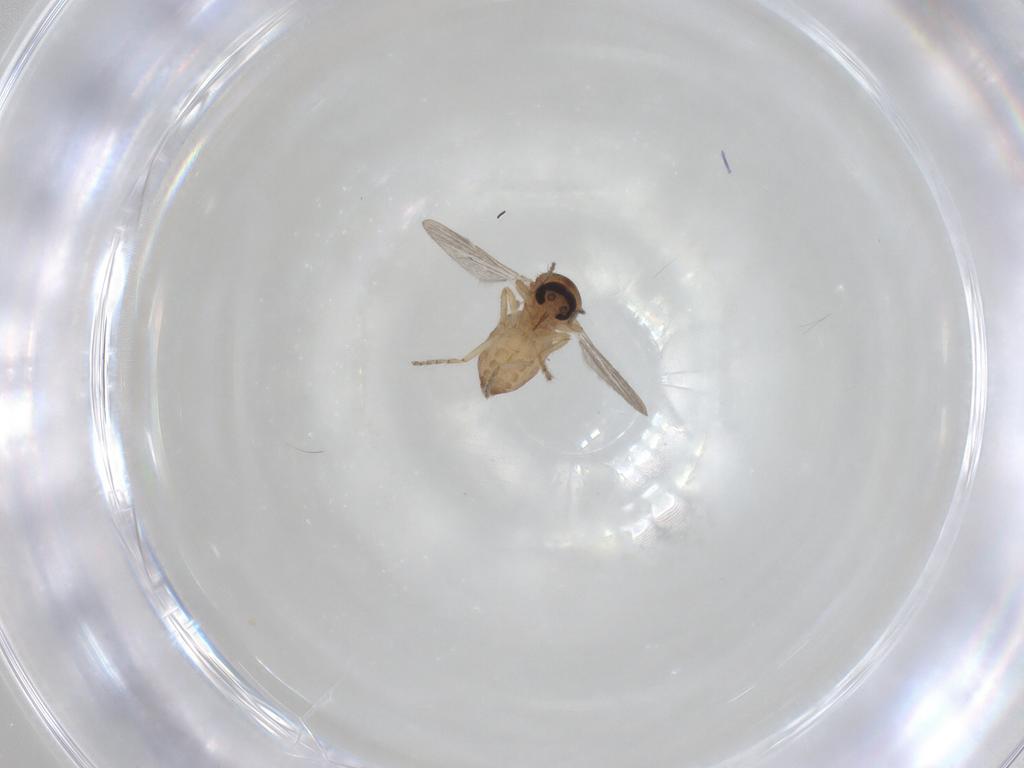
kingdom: Animalia
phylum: Arthropoda
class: Insecta
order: Diptera
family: Ceratopogonidae
